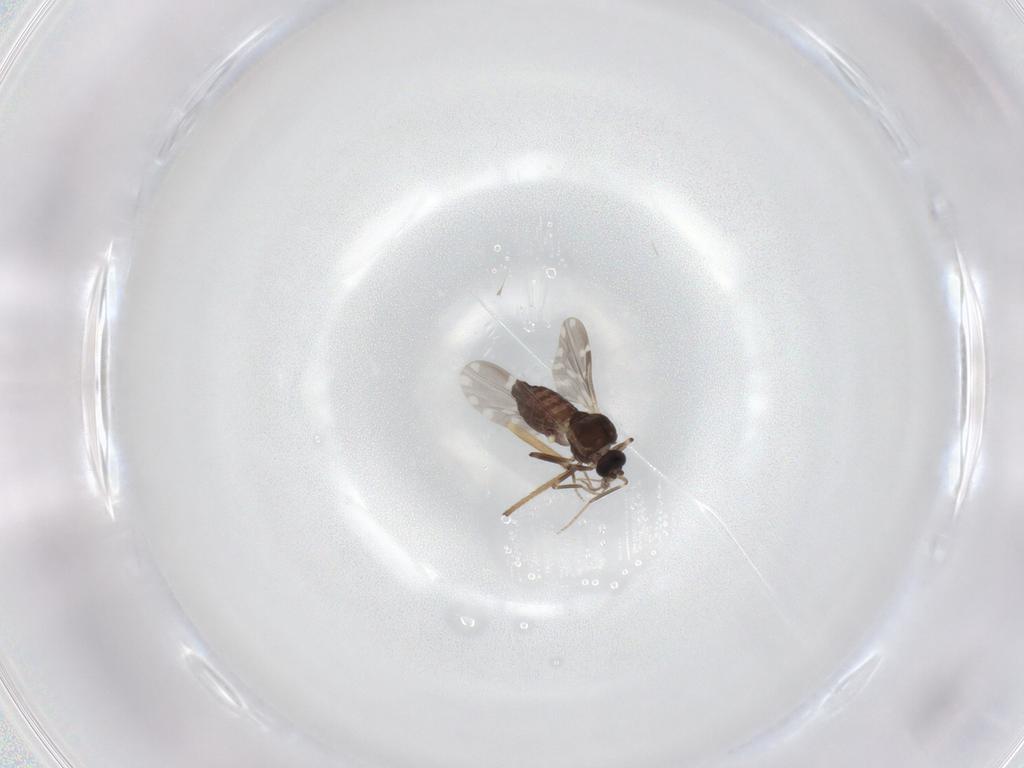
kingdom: Animalia
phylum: Arthropoda
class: Insecta
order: Diptera
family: Ceratopogonidae
